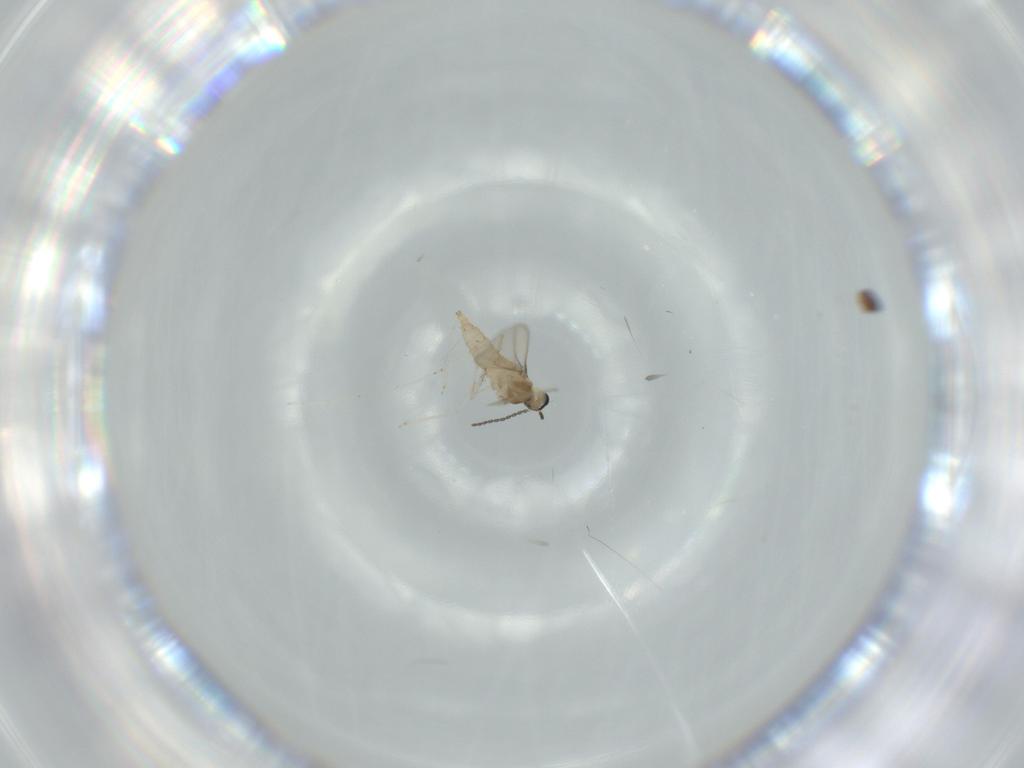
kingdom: Animalia
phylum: Arthropoda
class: Insecta
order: Diptera
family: Cecidomyiidae
